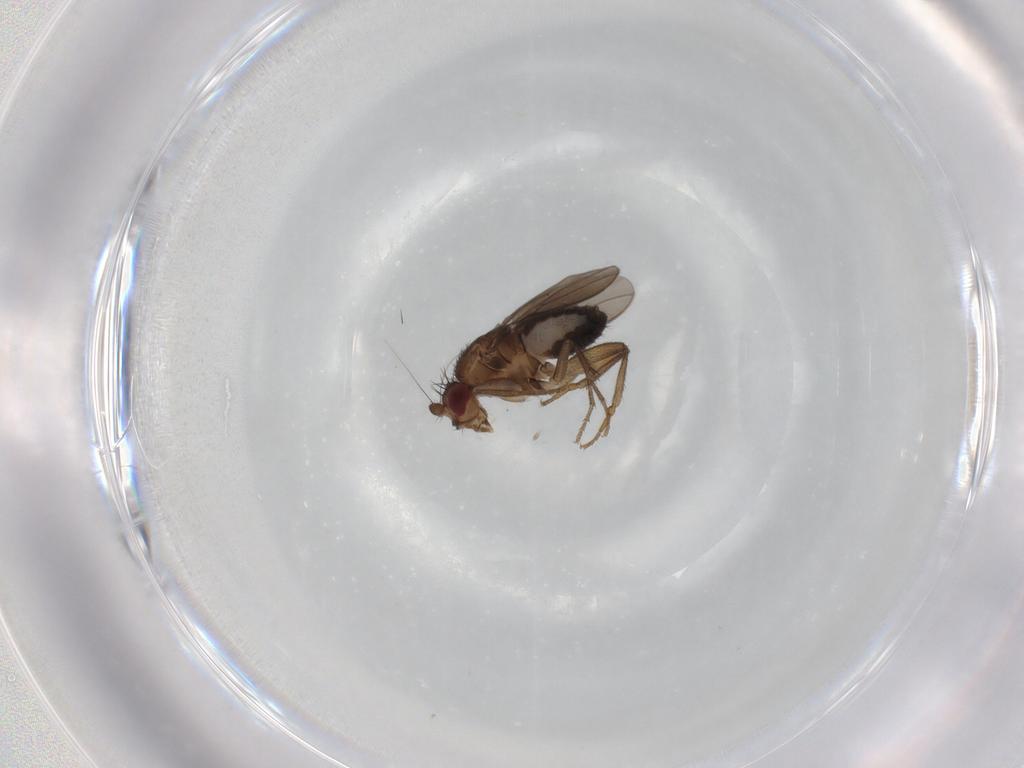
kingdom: Animalia
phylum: Arthropoda
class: Insecta
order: Diptera
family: Sphaeroceridae
